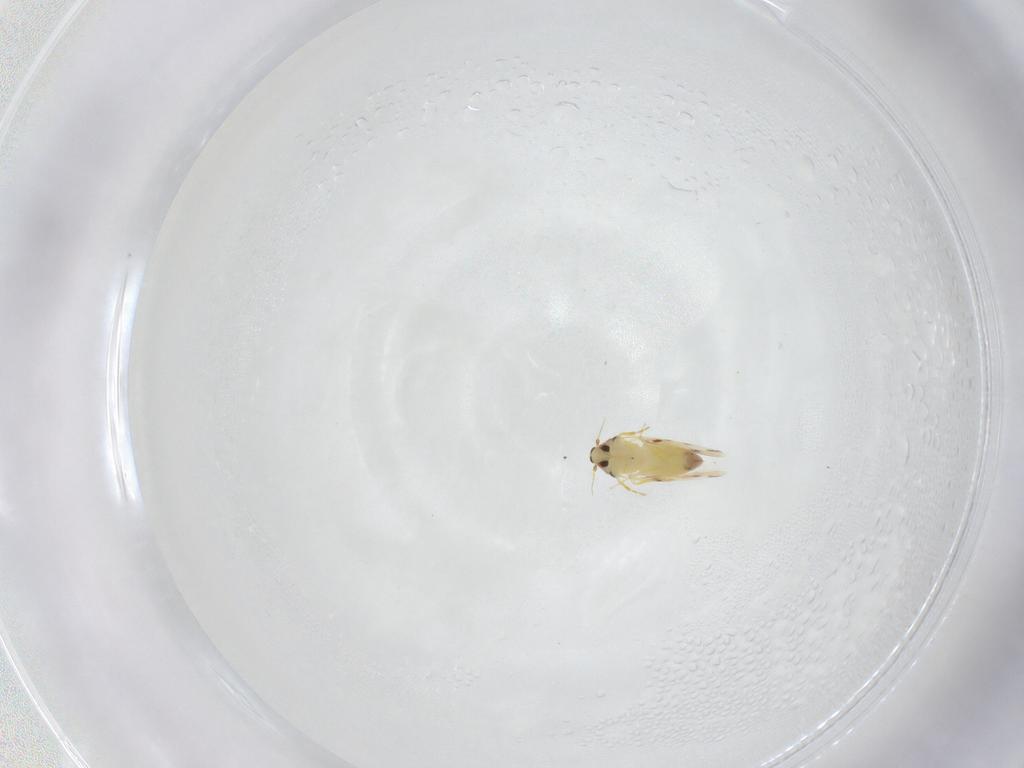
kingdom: Animalia
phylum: Arthropoda
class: Insecta
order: Hemiptera
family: Aleyrodidae
